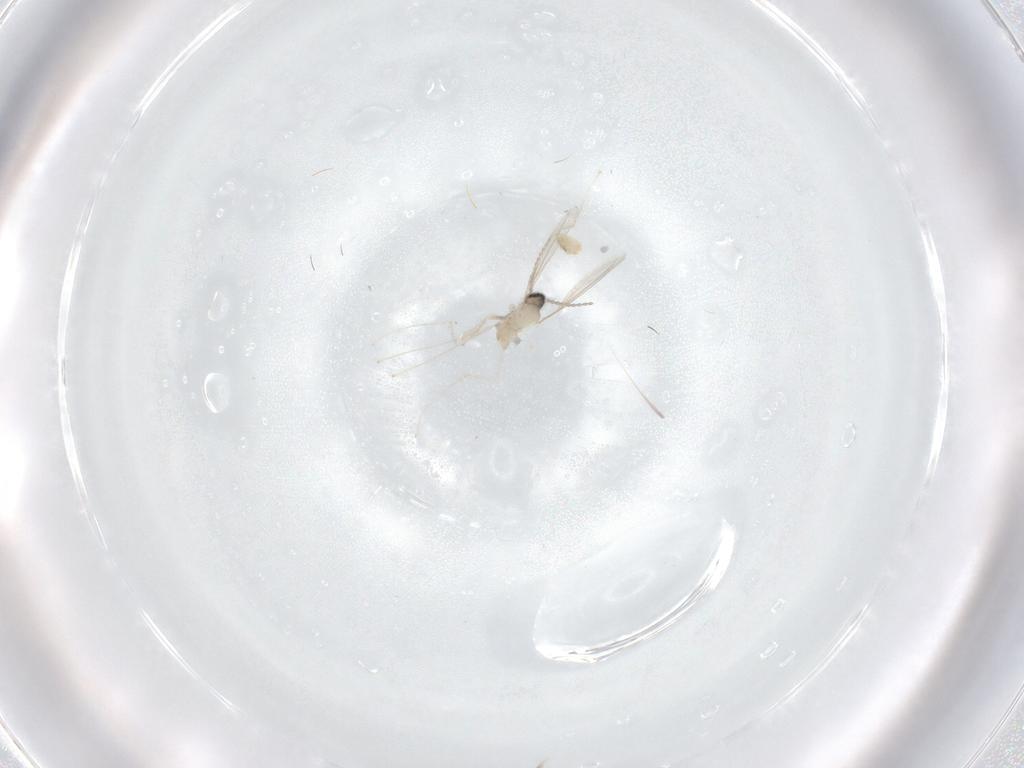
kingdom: Animalia
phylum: Arthropoda
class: Insecta
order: Diptera
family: Cecidomyiidae
